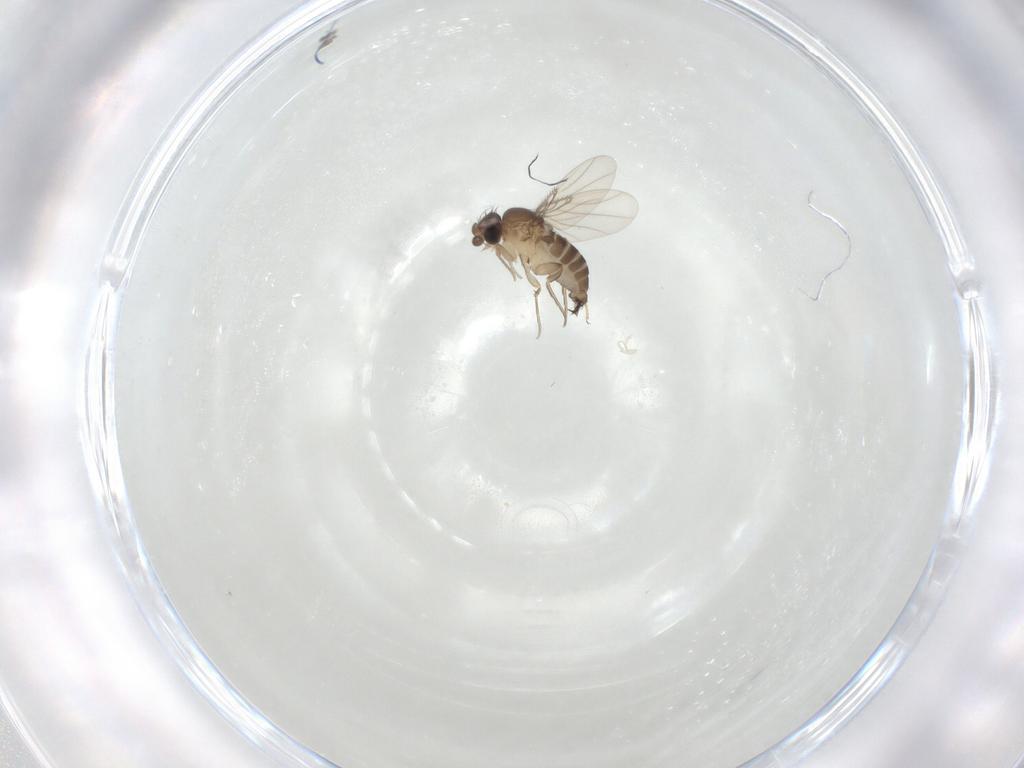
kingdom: Animalia
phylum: Arthropoda
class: Insecta
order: Diptera
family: Phoridae
